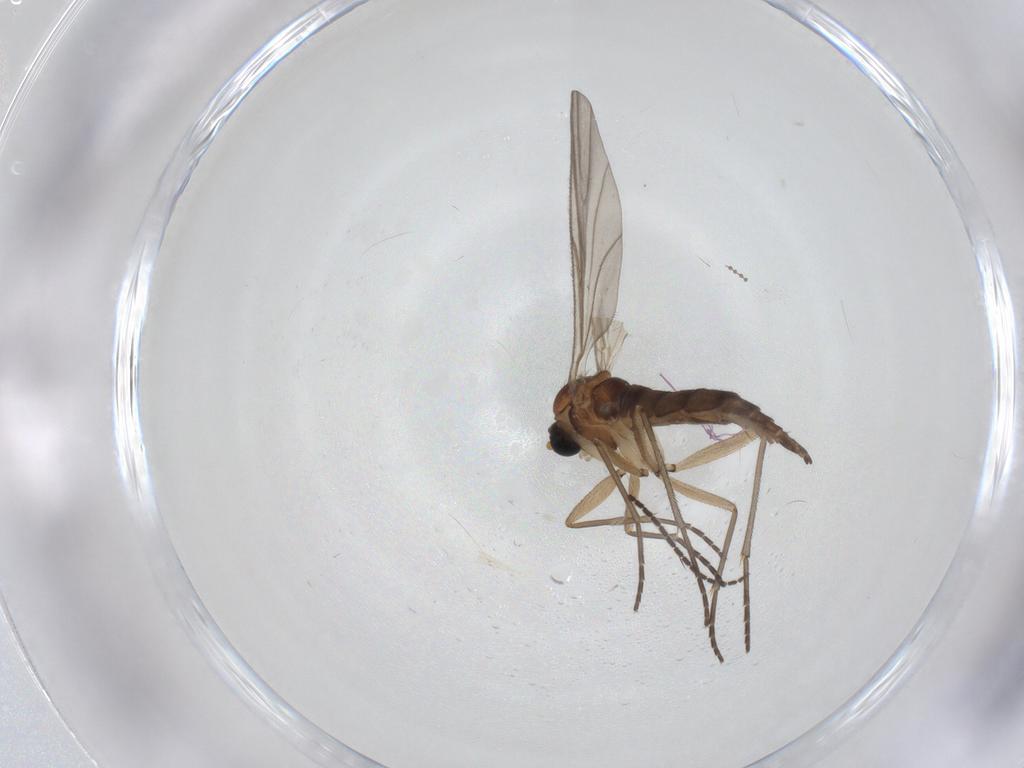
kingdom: Animalia
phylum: Arthropoda
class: Insecta
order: Diptera
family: Sciaridae
